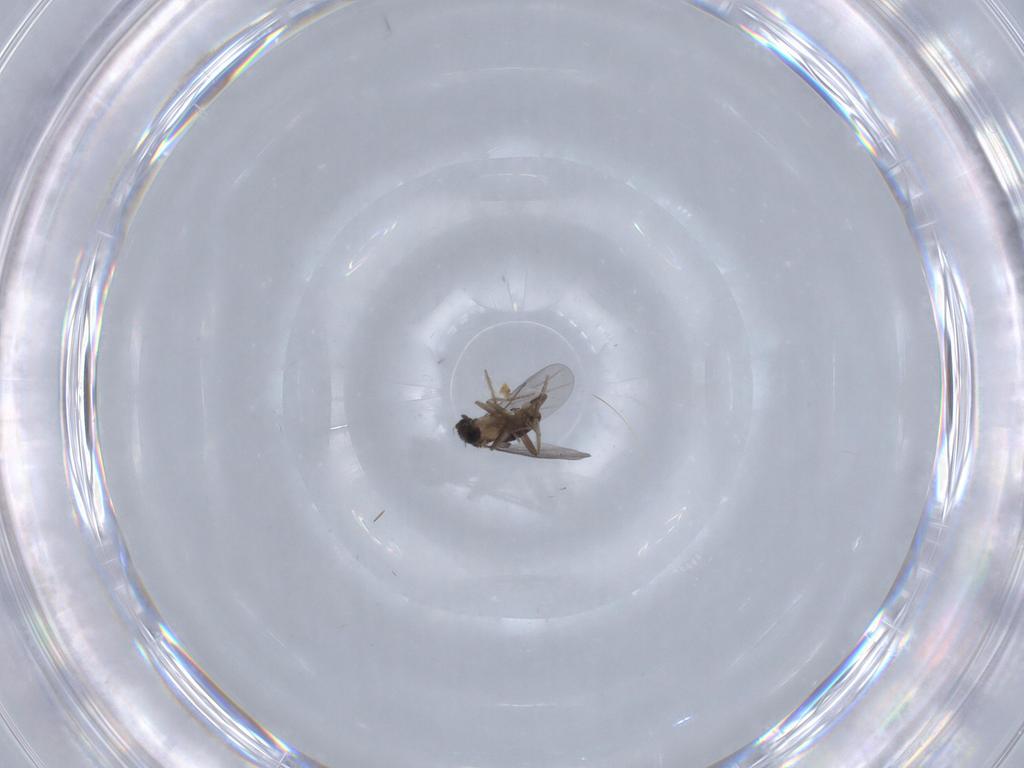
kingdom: Animalia
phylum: Arthropoda
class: Insecta
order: Diptera
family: Ceratopogonidae
